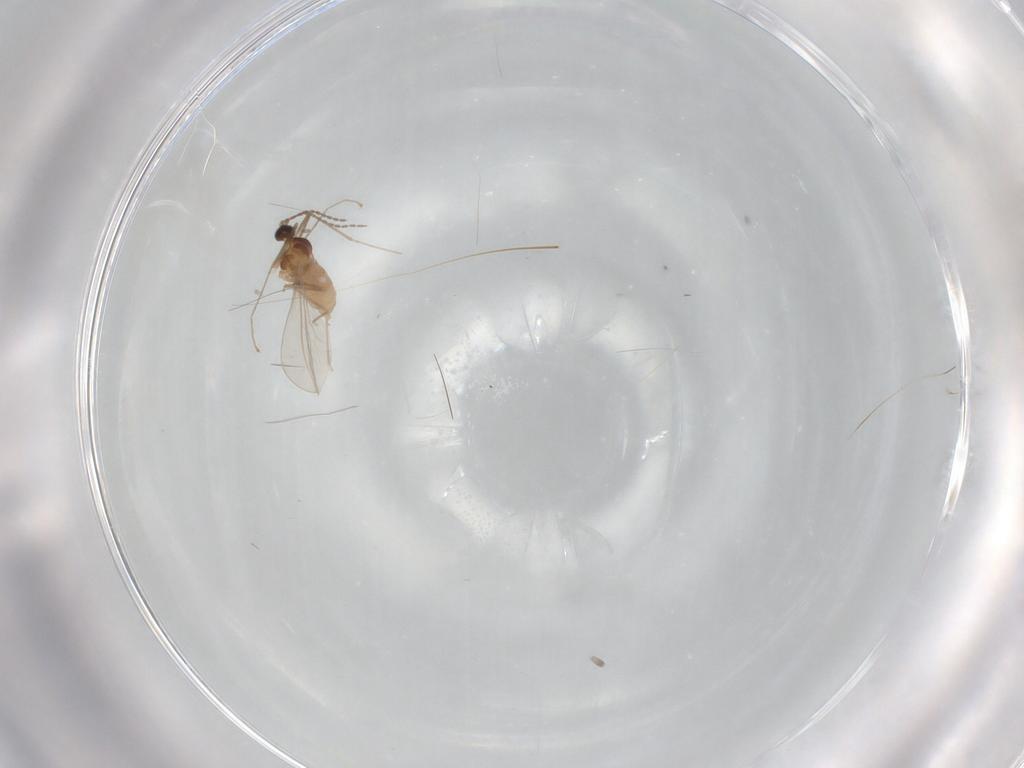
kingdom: Animalia
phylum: Arthropoda
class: Insecta
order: Diptera
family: Cecidomyiidae
